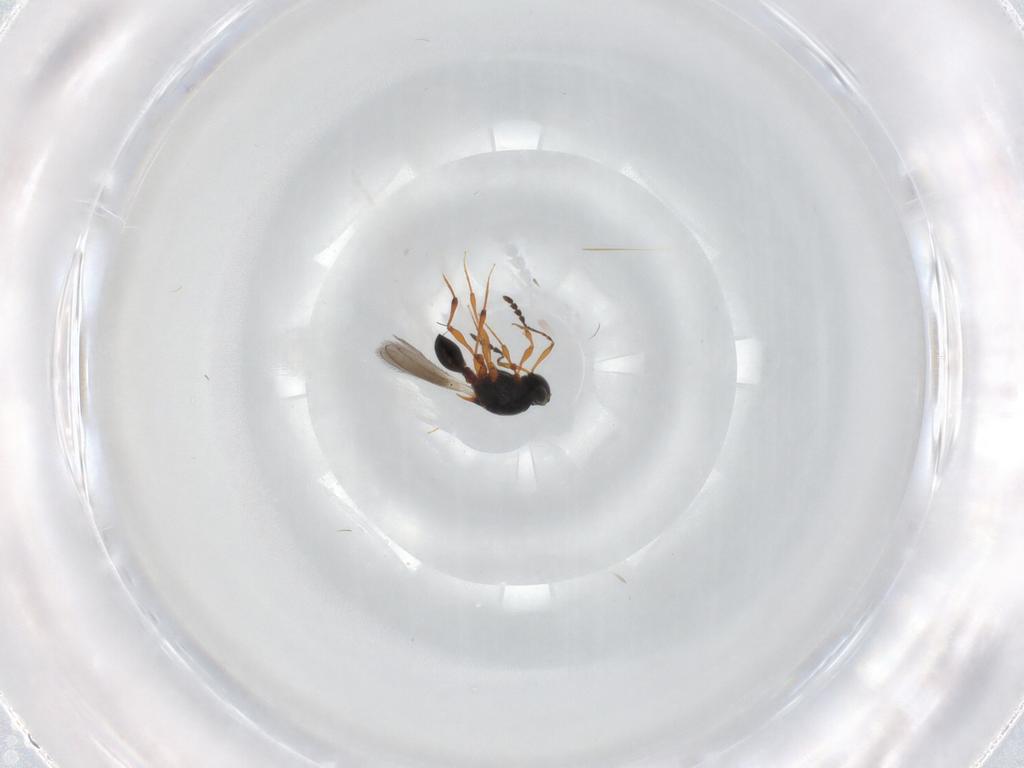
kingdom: Animalia
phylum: Arthropoda
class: Insecta
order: Hymenoptera
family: Platygastridae
